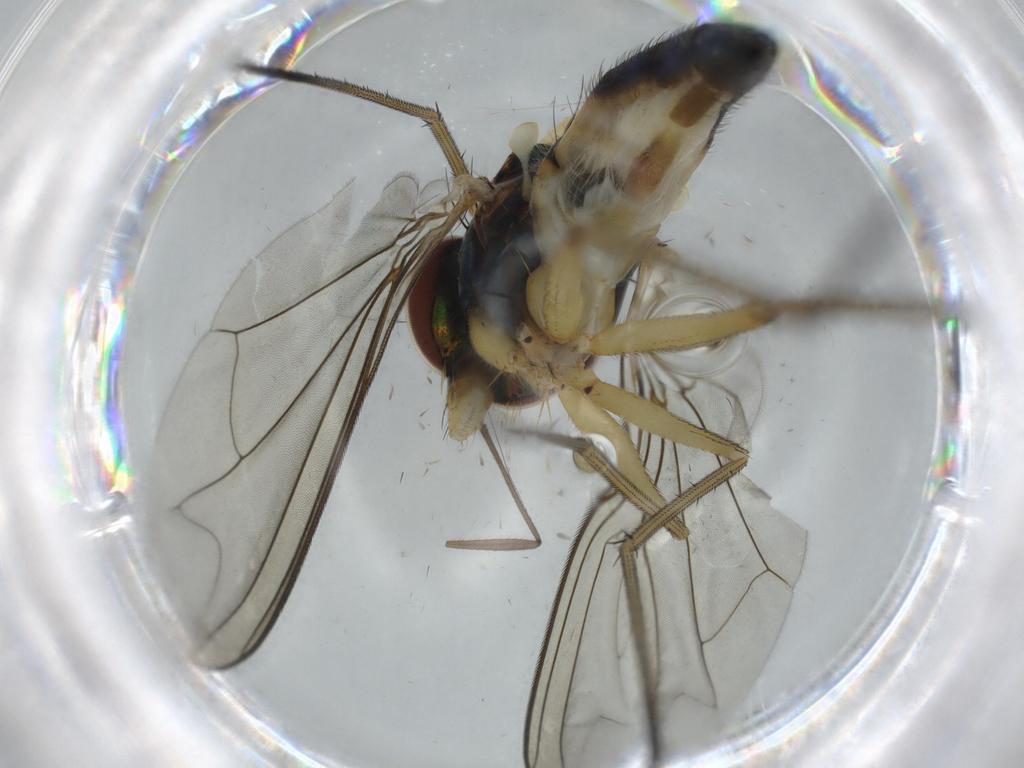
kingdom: Animalia
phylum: Arthropoda
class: Insecta
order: Diptera
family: Dolichopodidae
